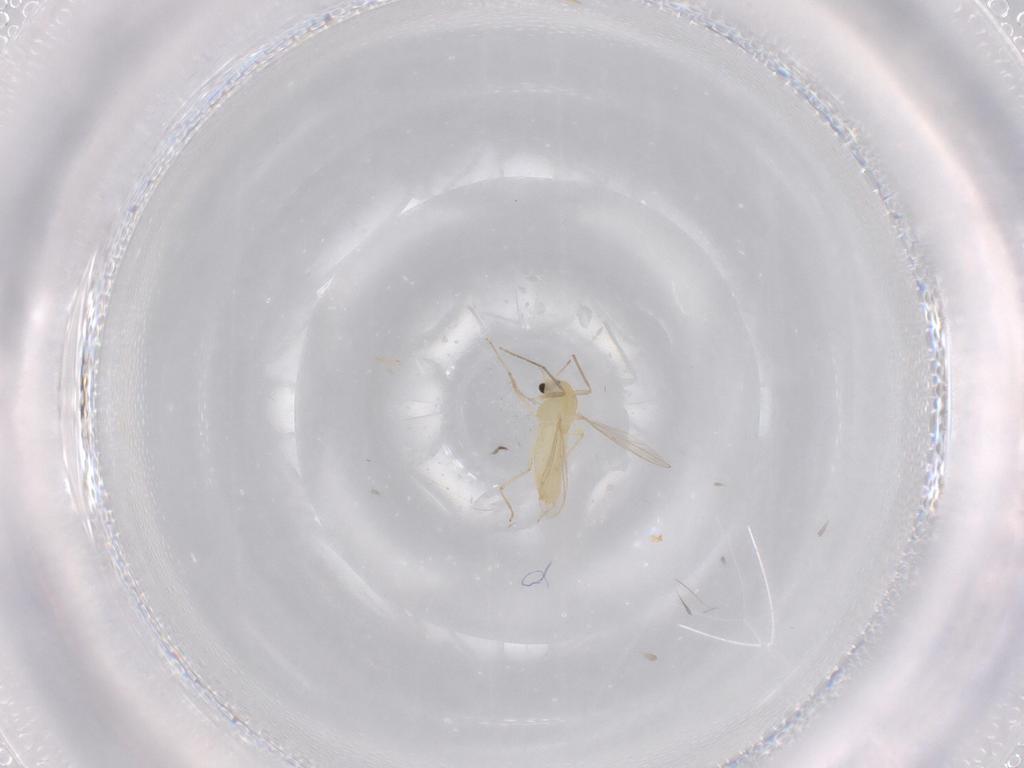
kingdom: Animalia
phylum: Arthropoda
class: Insecta
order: Diptera
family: Chironomidae
